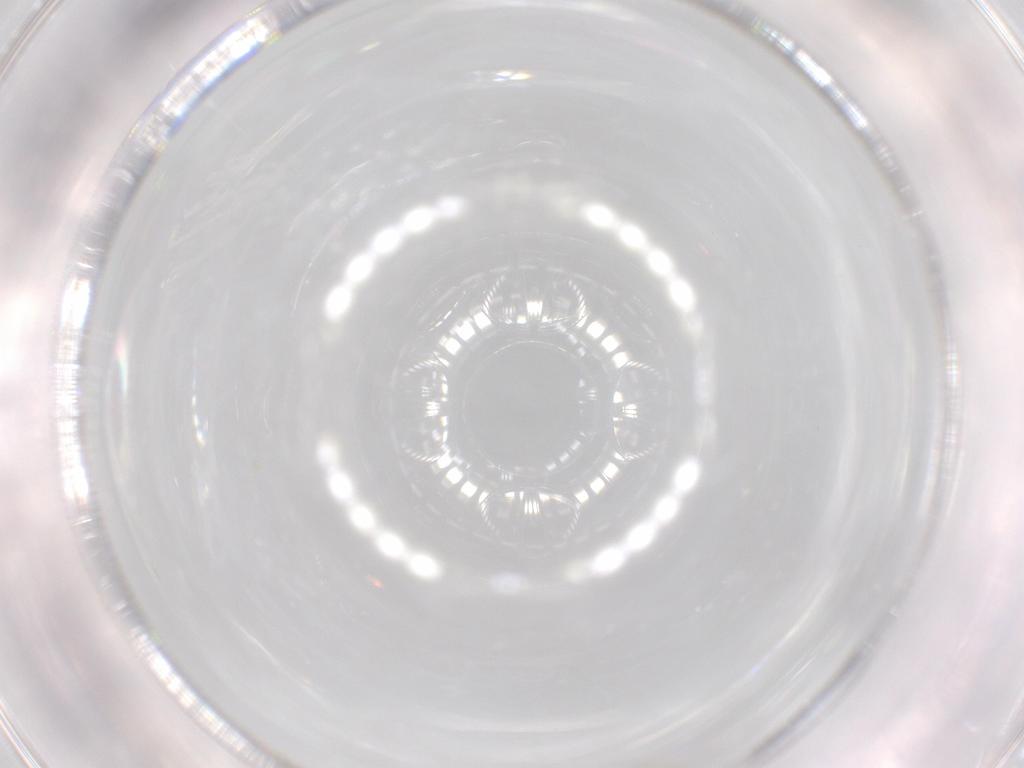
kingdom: Animalia
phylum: Arthropoda
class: Insecta
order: Hymenoptera
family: Scelionidae
